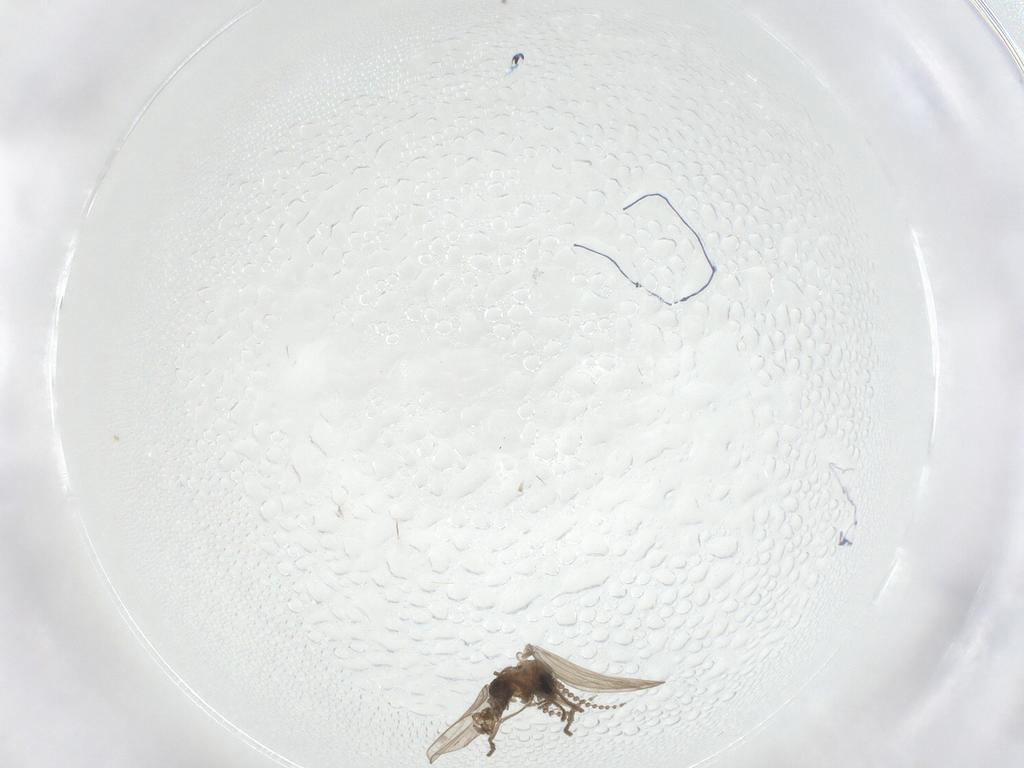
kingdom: Animalia
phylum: Arthropoda
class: Insecta
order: Diptera
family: Psychodidae
